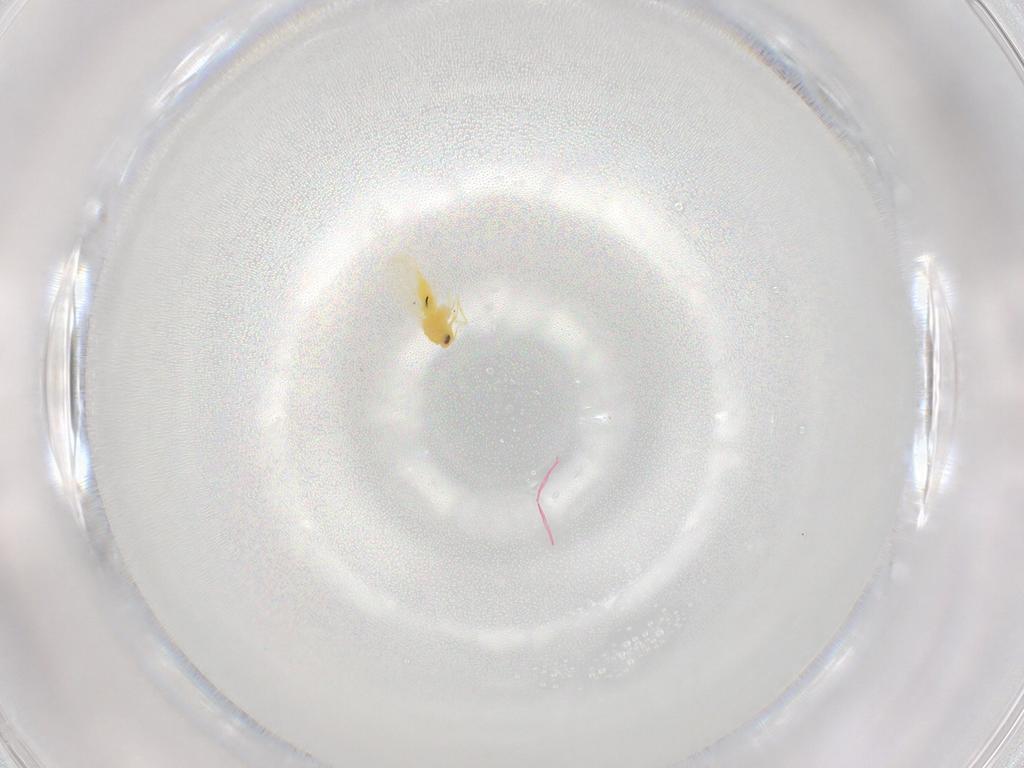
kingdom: Animalia
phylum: Arthropoda
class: Insecta
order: Hemiptera
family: Aleyrodidae
